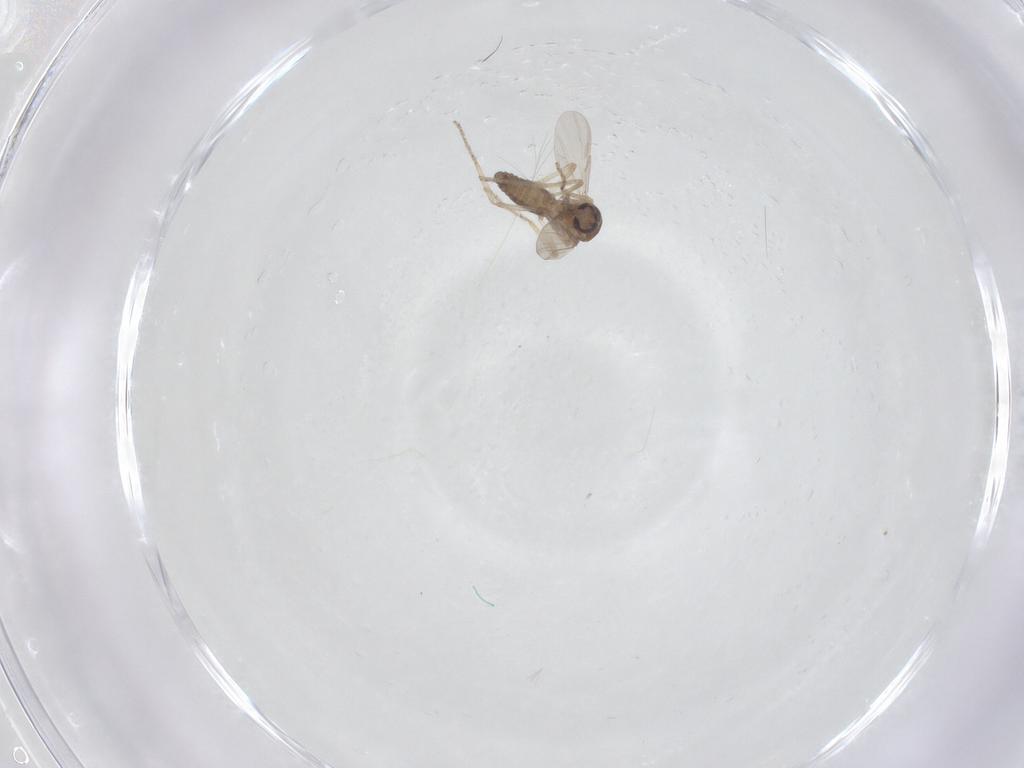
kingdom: Animalia
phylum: Arthropoda
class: Insecta
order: Diptera
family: Ceratopogonidae
